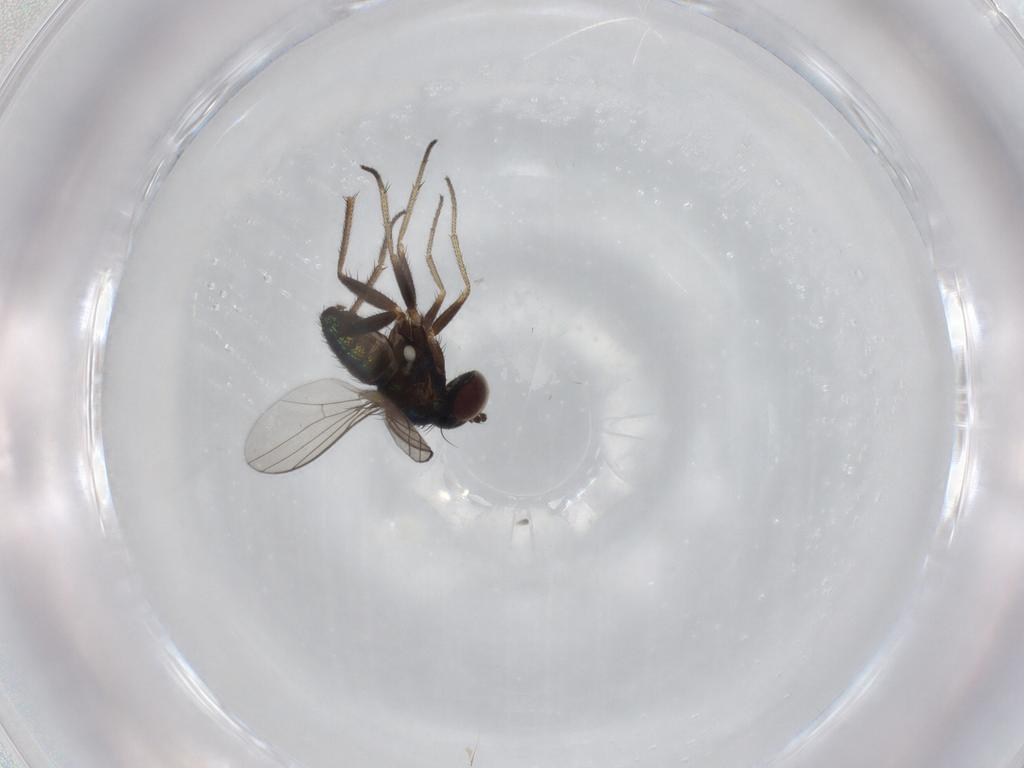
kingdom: Animalia
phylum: Arthropoda
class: Insecta
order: Diptera
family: Dolichopodidae
